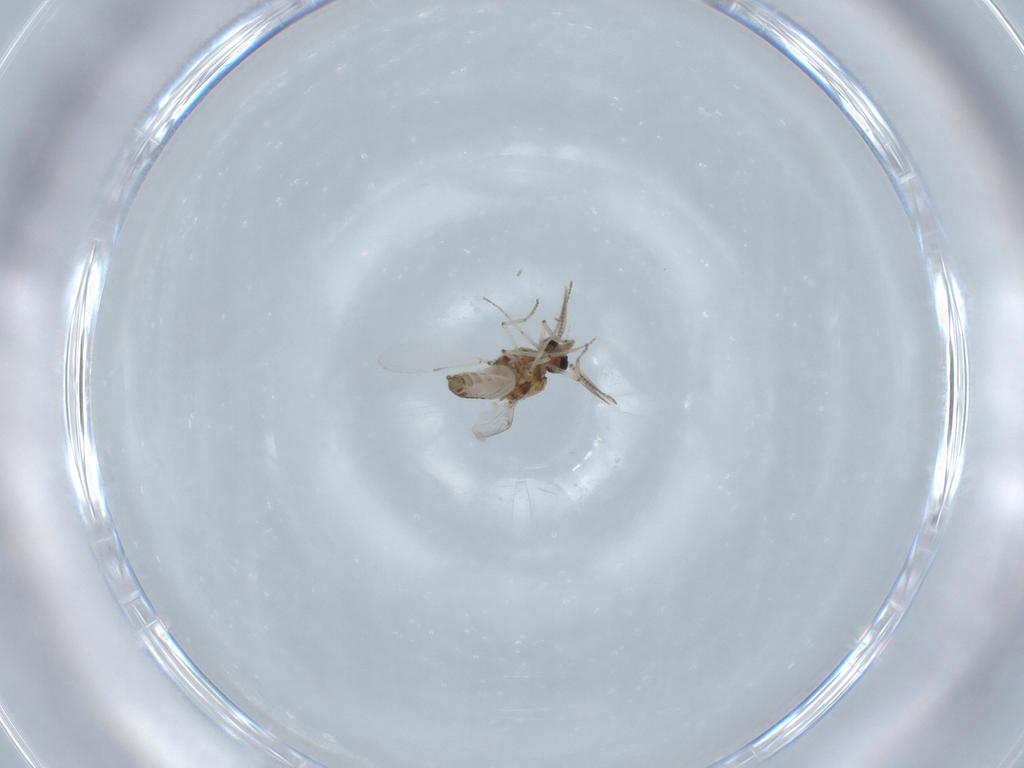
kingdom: Animalia
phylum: Arthropoda
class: Insecta
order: Diptera
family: Ceratopogonidae
